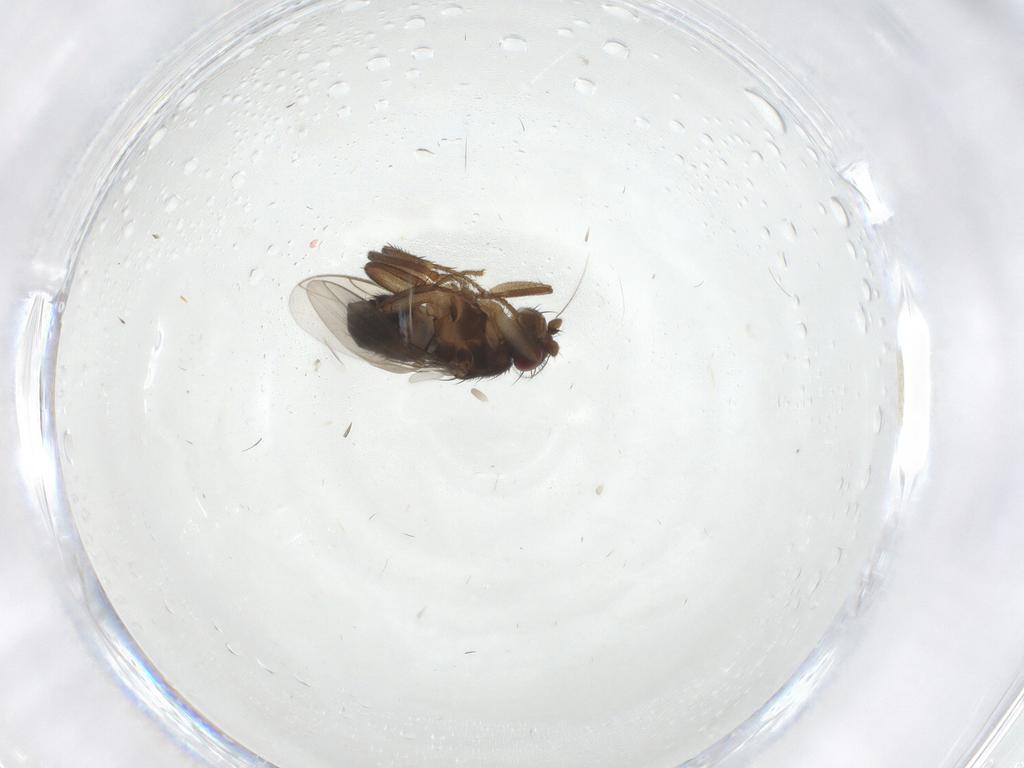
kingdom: Animalia
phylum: Arthropoda
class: Insecta
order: Diptera
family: Sphaeroceridae
